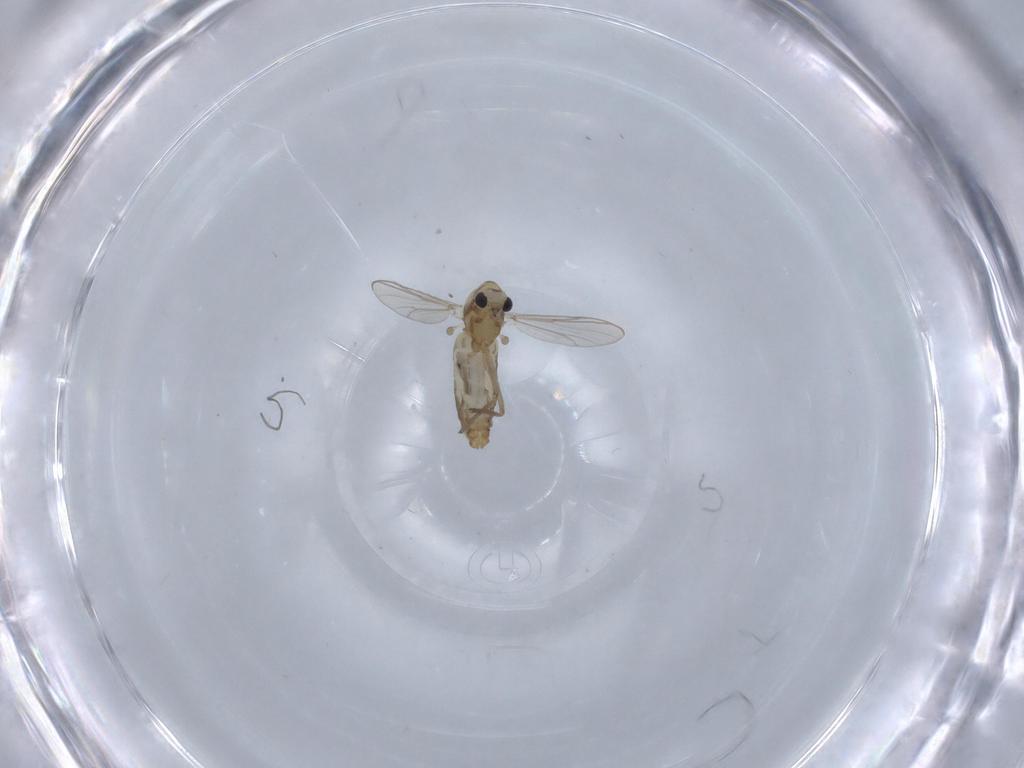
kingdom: Animalia
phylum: Arthropoda
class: Insecta
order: Diptera
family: Chironomidae
